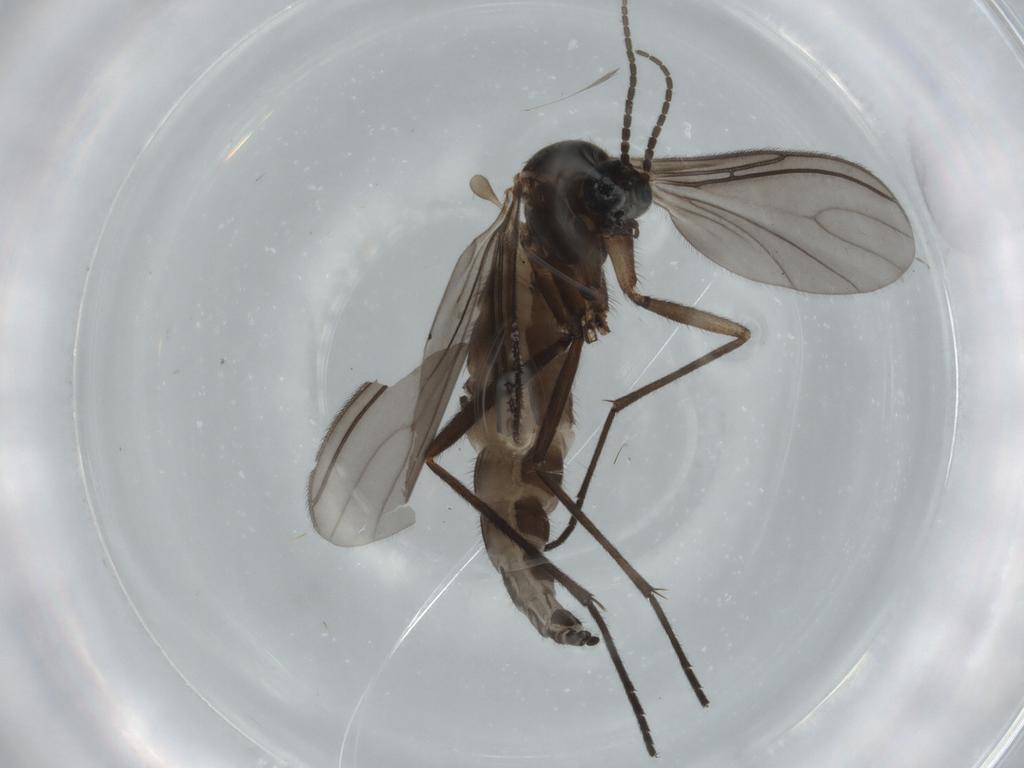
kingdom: Animalia
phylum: Arthropoda
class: Insecta
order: Diptera
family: Sciaridae
